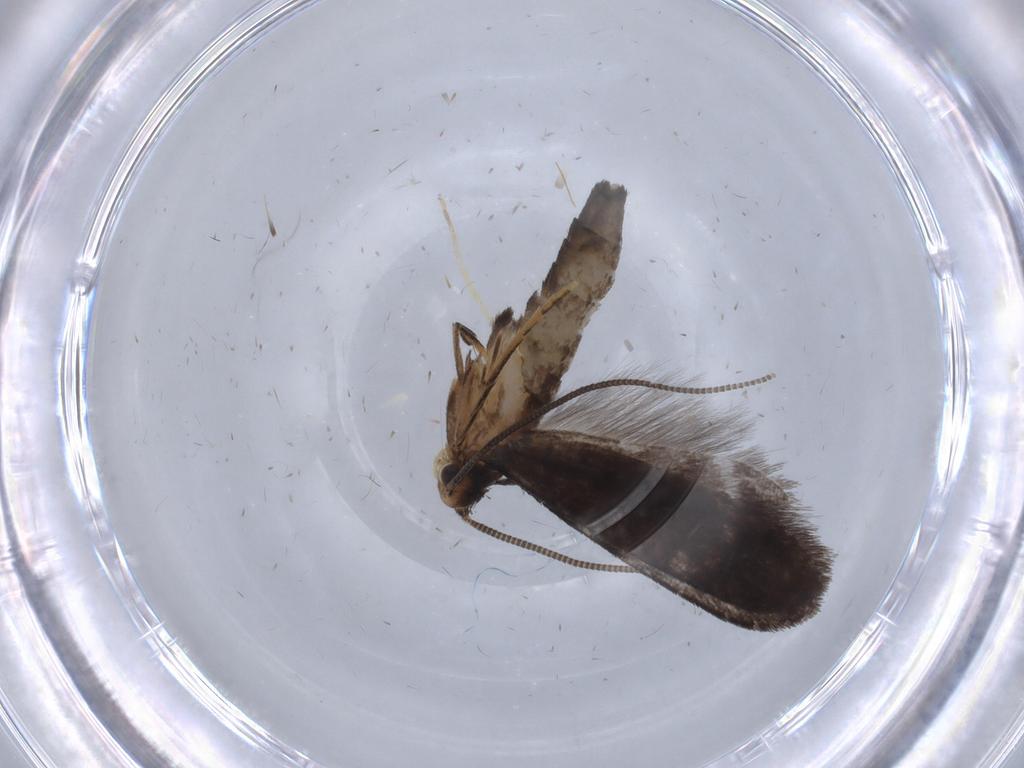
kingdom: Animalia
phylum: Arthropoda
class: Insecta
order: Lepidoptera
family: Tineidae
